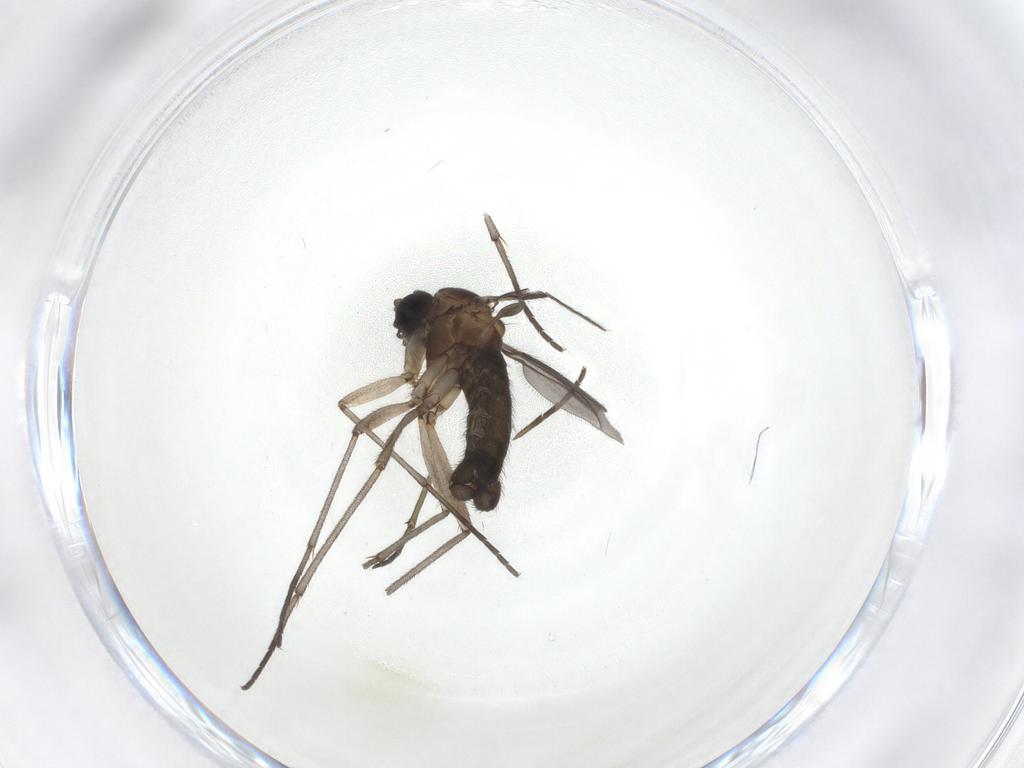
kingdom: Animalia
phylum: Arthropoda
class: Insecta
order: Diptera
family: Sciaridae
